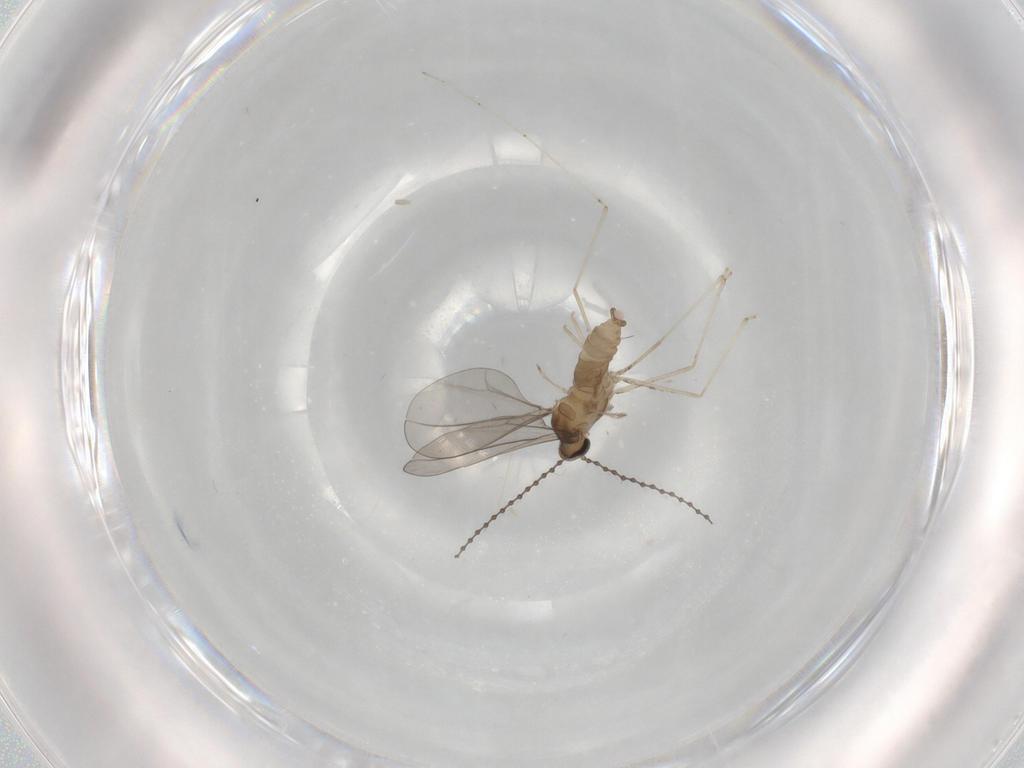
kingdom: Animalia
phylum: Arthropoda
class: Insecta
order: Diptera
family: Cecidomyiidae
